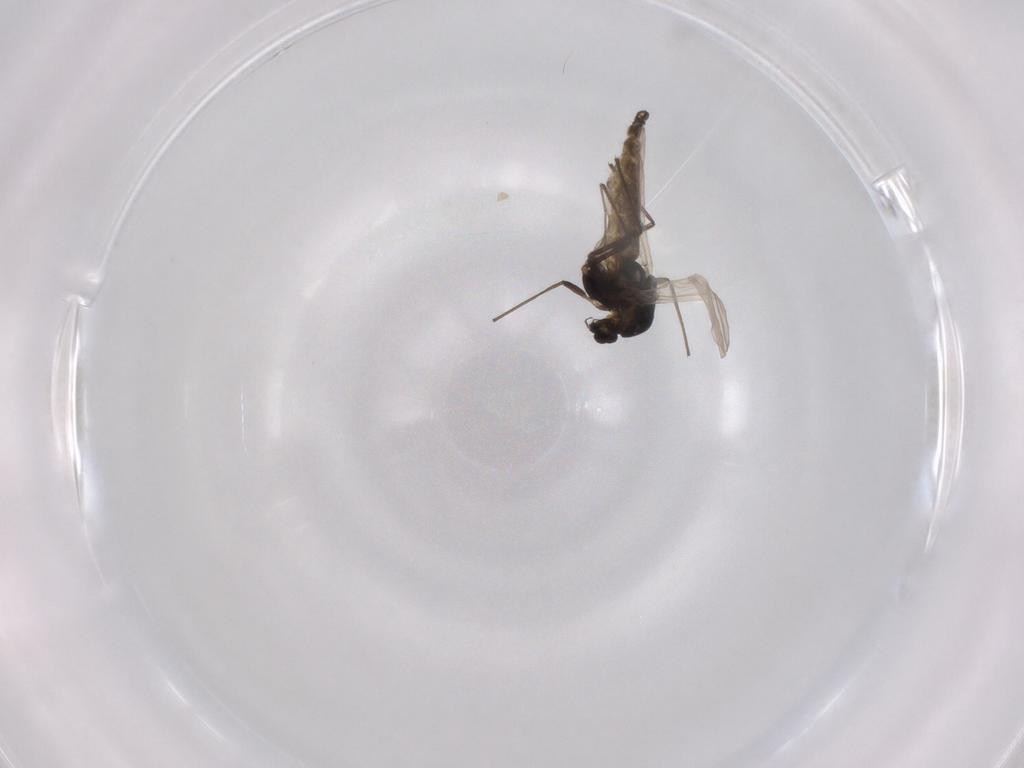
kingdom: Animalia
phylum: Arthropoda
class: Insecta
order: Diptera
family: Chironomidae
